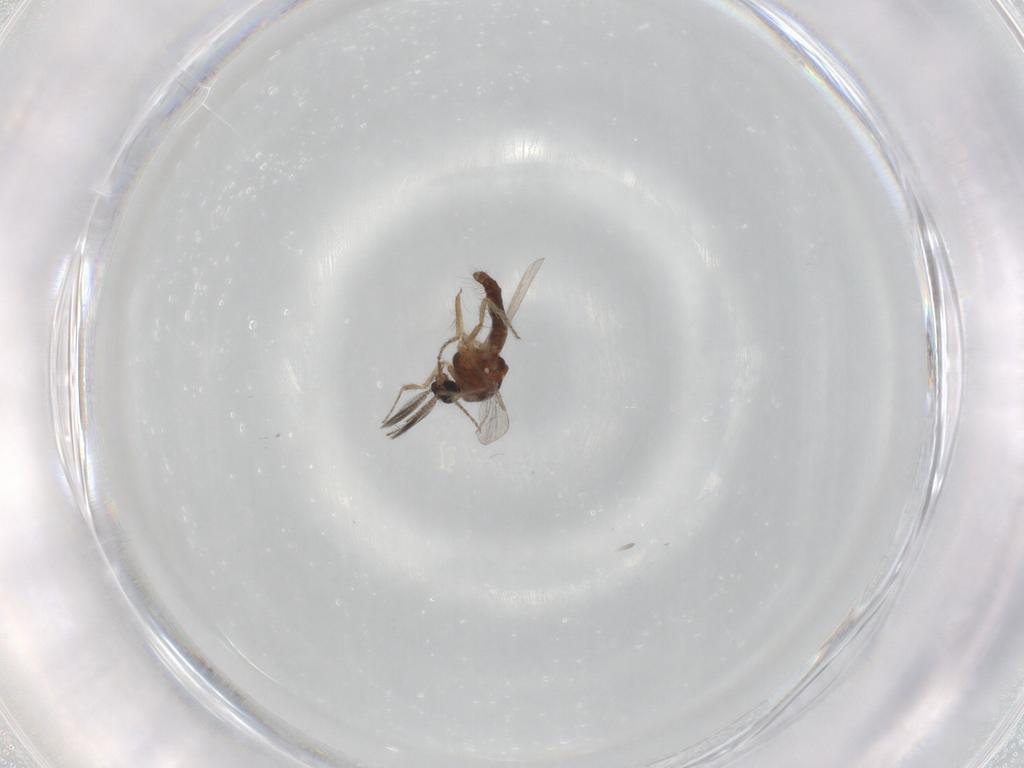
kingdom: Animalia
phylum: Arthropoda
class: Insecta
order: Diptera
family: Ceratopogonidae
